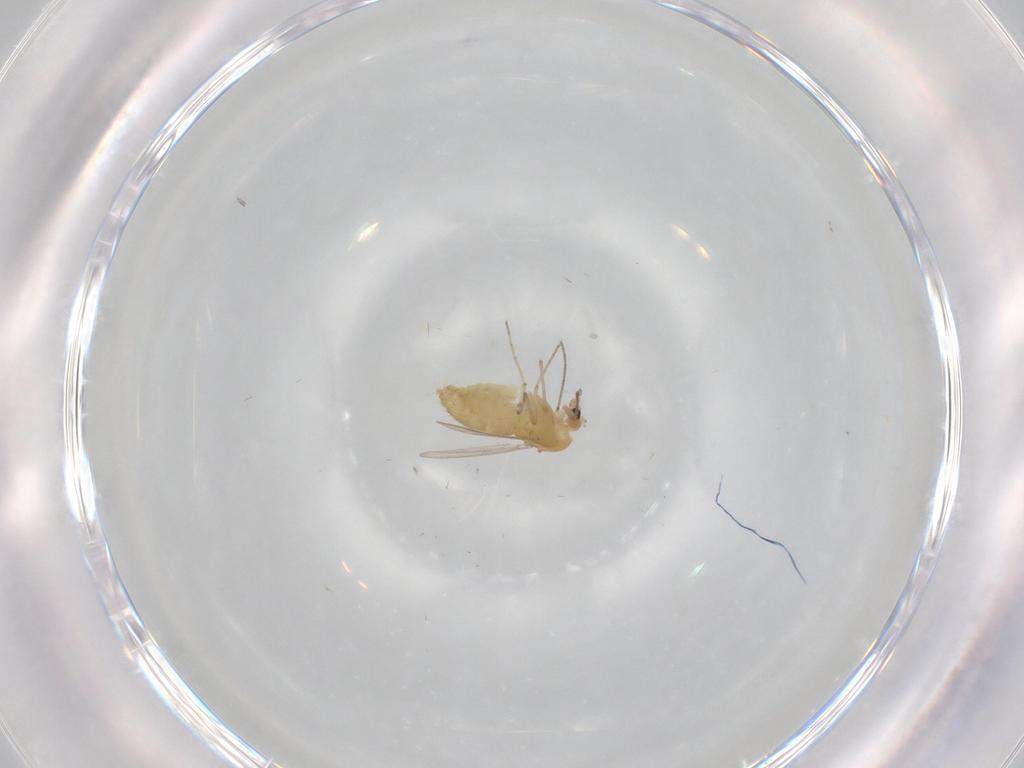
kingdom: Animalia
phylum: Arthropoda
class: Insecta
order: Diptera
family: Chironomidae
